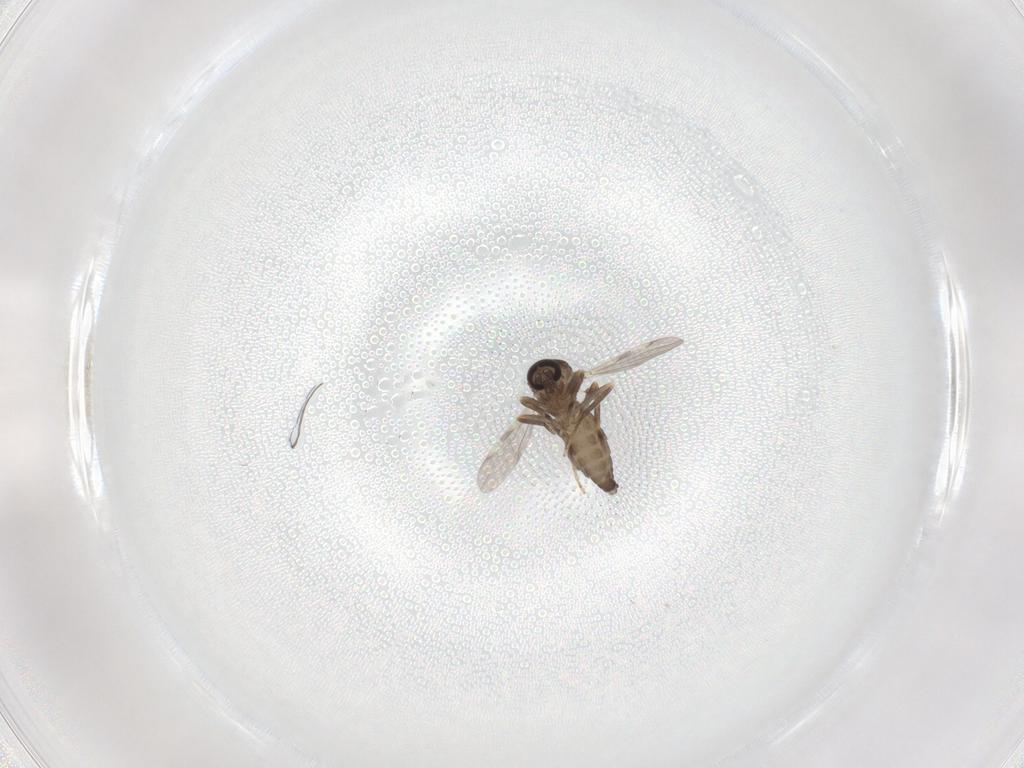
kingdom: Animalia
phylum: Arthropoda
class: Insecta
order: Diptera
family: Ceratopogonidae
